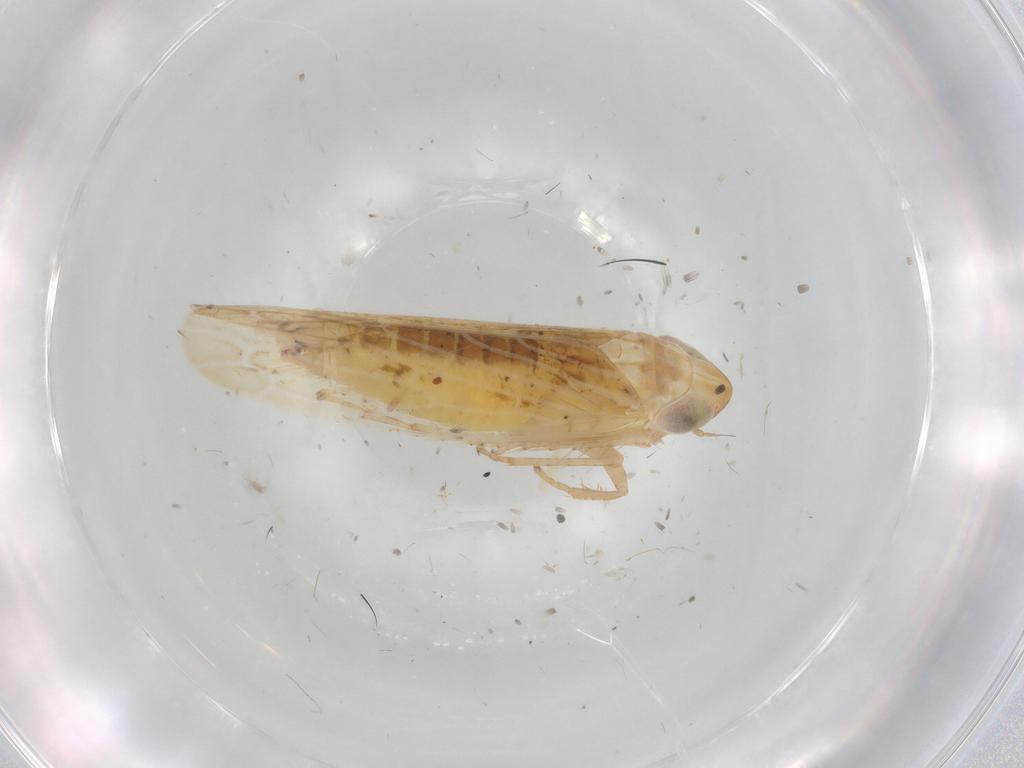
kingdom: Animalia
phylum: Arthropoda
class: Insecta
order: Hemiptera
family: Cicadellidae
